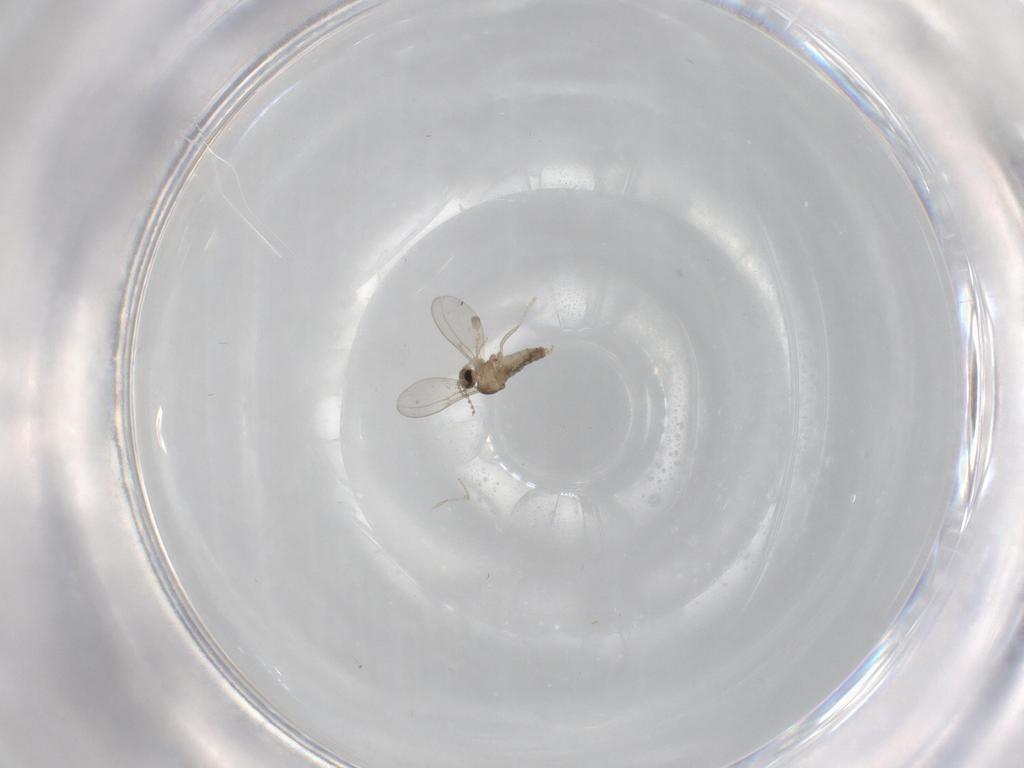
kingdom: Animalia
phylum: Arthropoda
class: Insecta
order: Diptera
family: Cecidomyiidae
